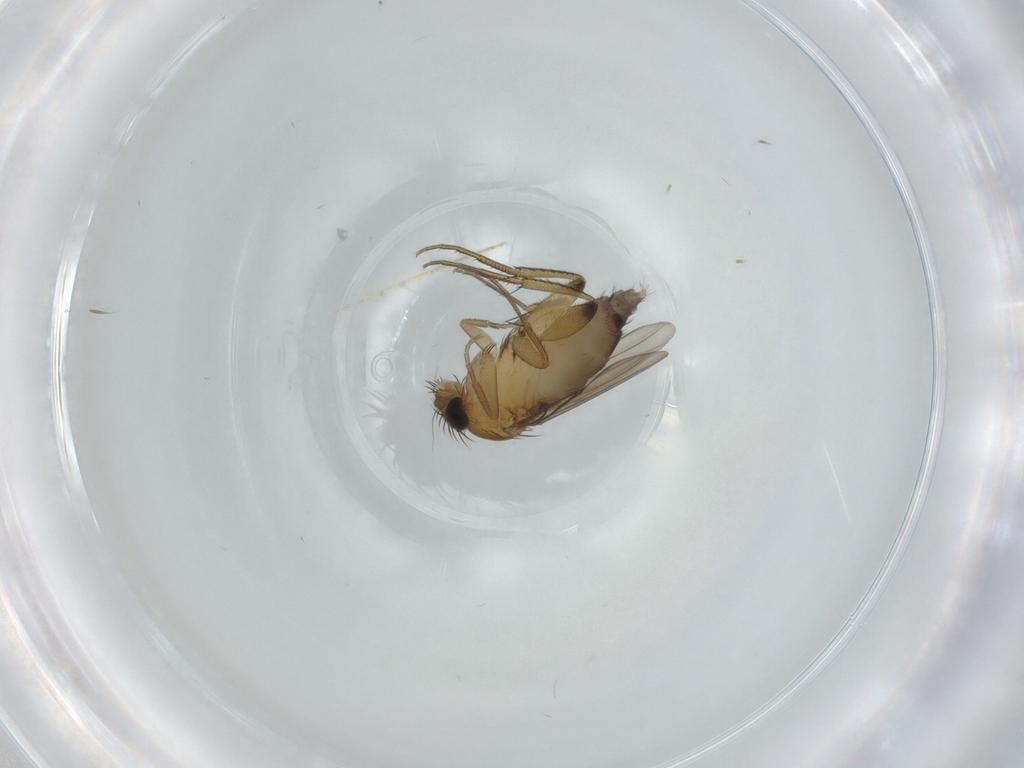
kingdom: Animalia
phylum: Arthropoda
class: Insecta
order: Diptera
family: Phoridae
